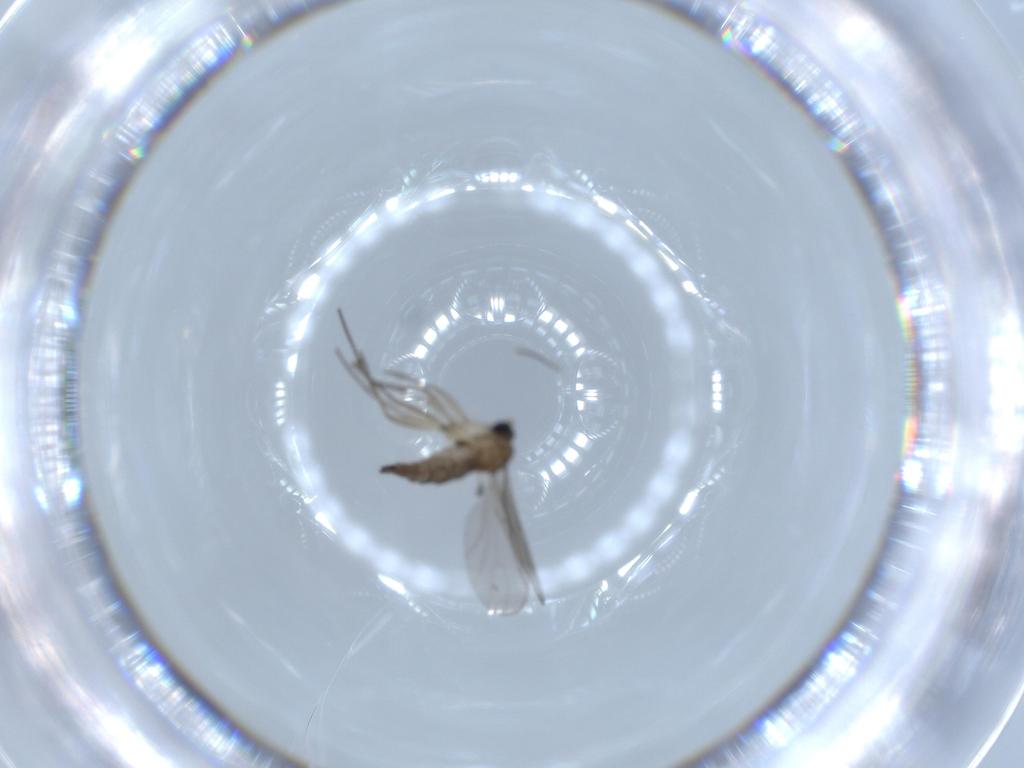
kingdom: Animalia
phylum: Arthropoda
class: Insecta
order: Diptera
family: Sciaridae
